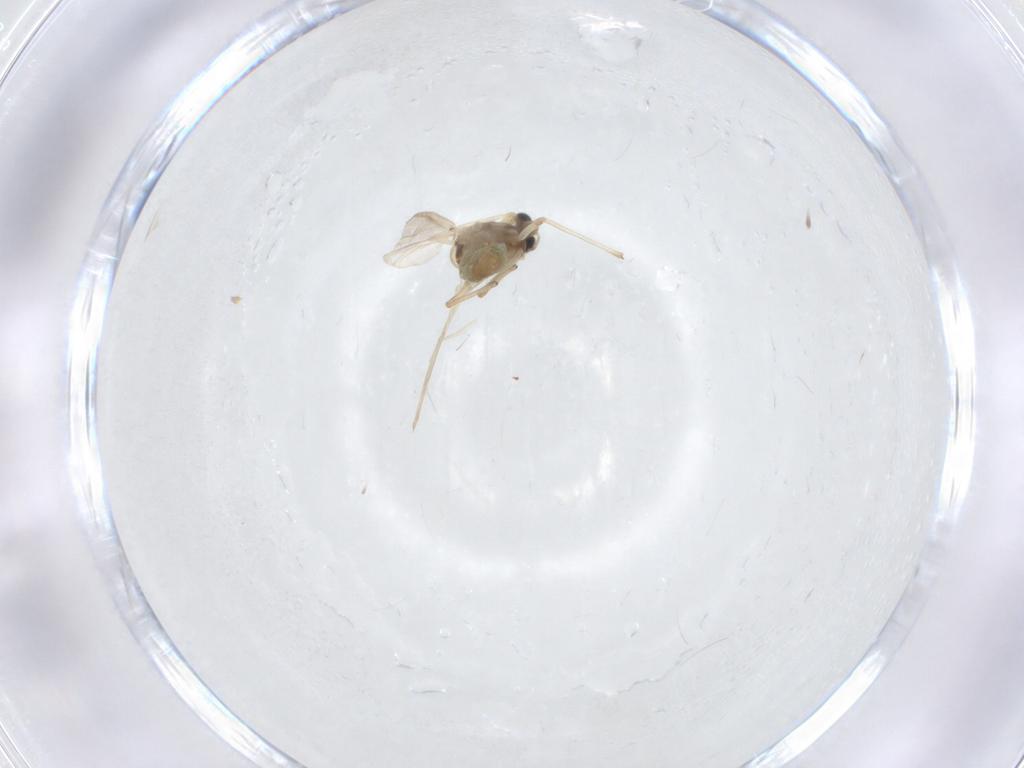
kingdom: Animalia
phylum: Arthropoda
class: Insecta
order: Diptera
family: Chironomidae
